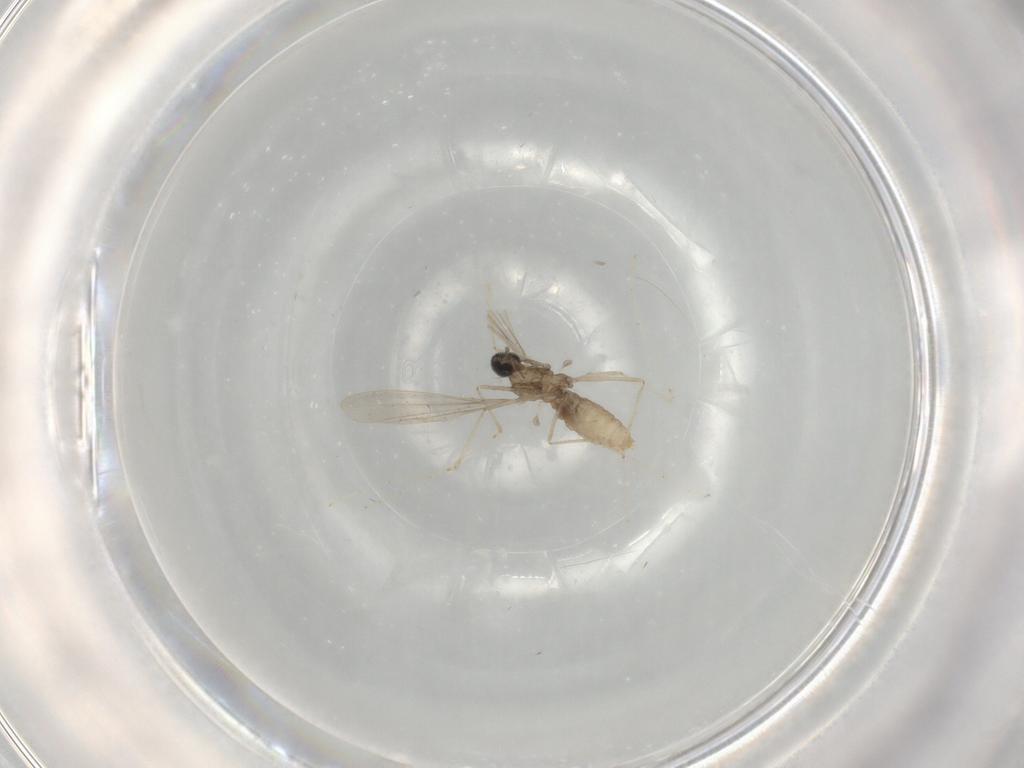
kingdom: Animalia
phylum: Arthropoda
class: Insecta
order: Diptera
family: Cecidomyiidae
